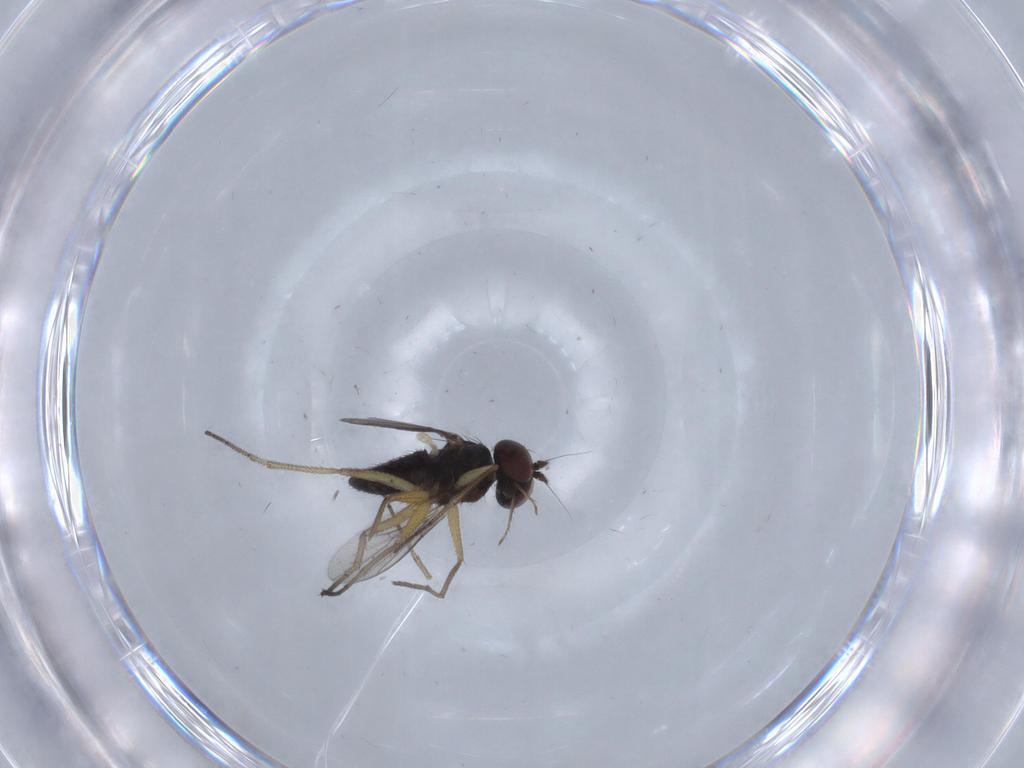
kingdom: Animalia
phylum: Arthropoda
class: Insecta
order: Diptera
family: Dolichopodidae
